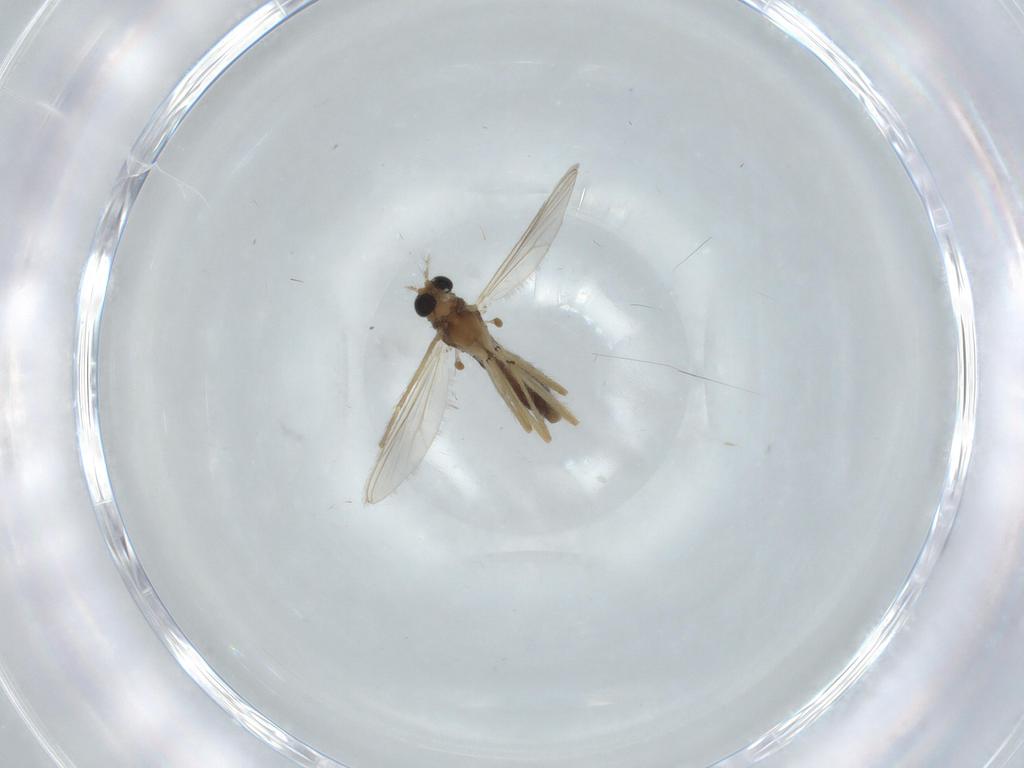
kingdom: Animalia
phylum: Arthropoda
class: Insecta
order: Diptera
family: Chironomidae
